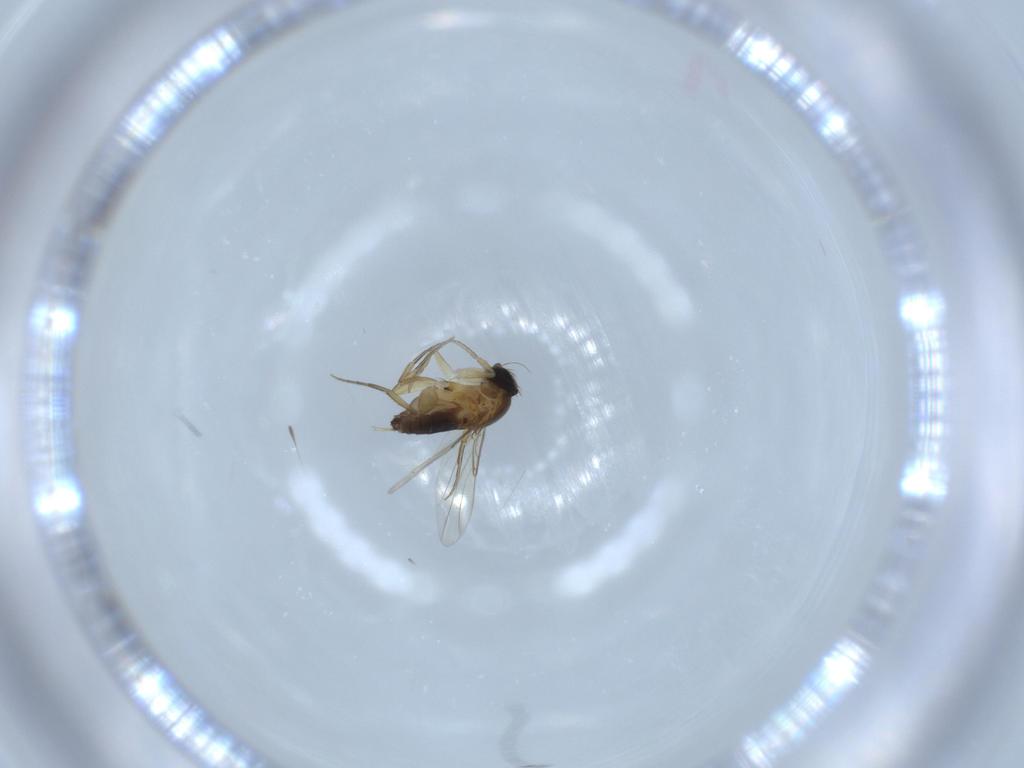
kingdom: Animalia
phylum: Arthropoda
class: Insecta
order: Diptera
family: Phoridae
